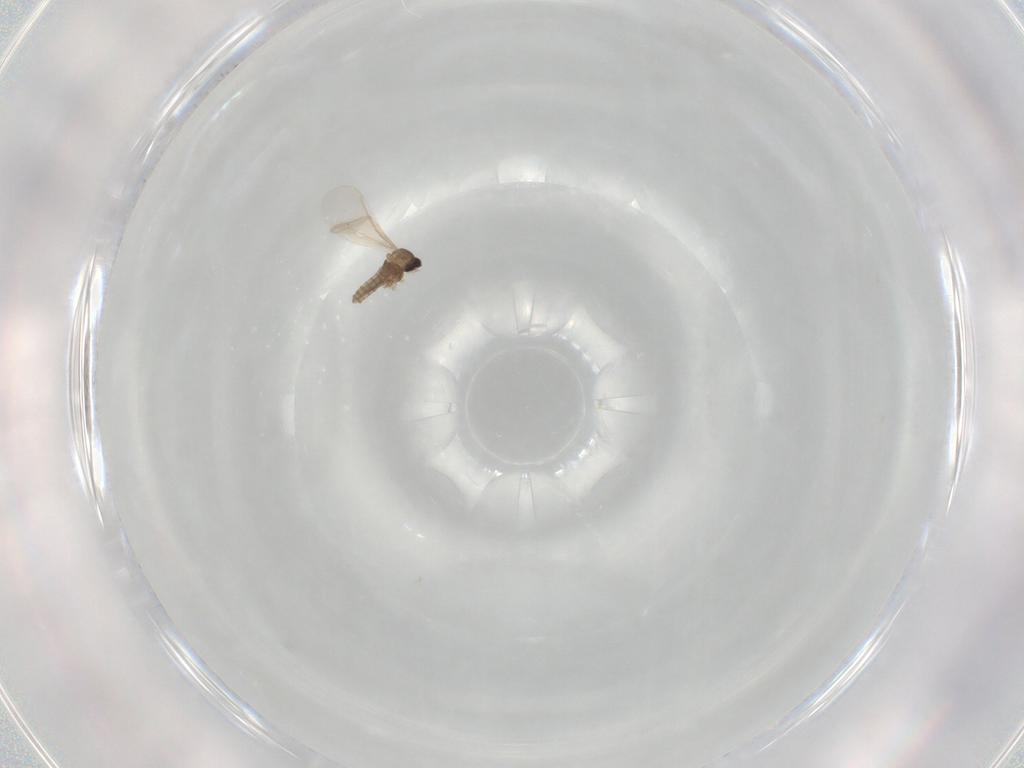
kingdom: Animalia
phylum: Arthropoda
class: Insecta
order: Diptera
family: Cecidomyiidae
